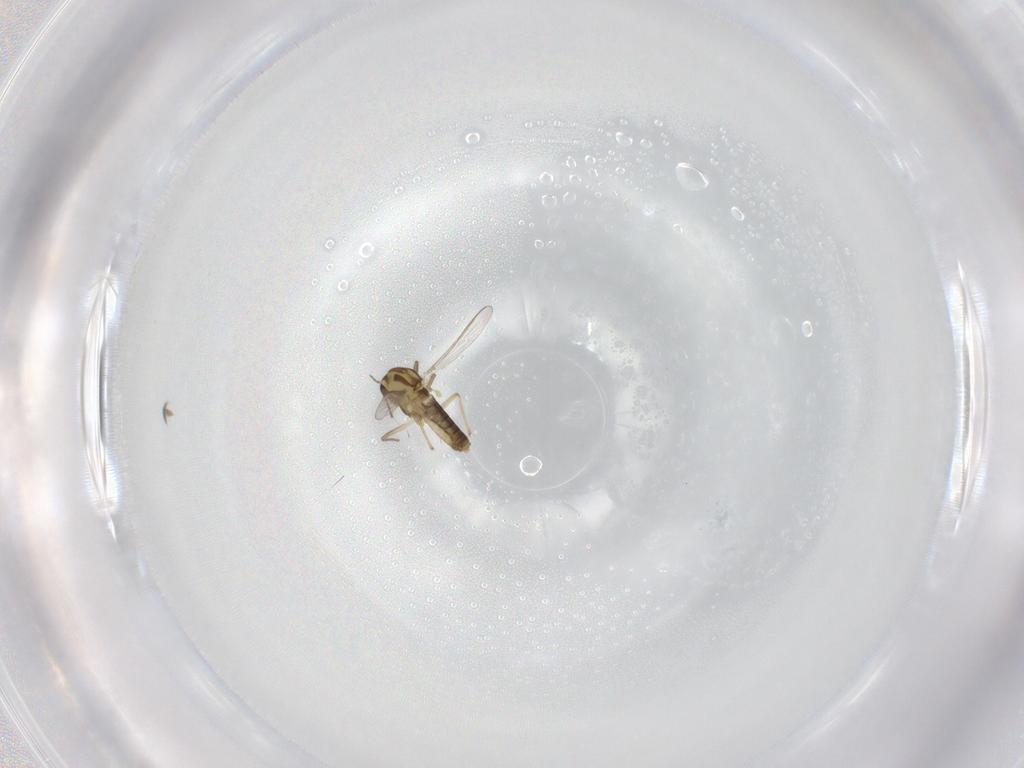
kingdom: Animalia
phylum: Arthropoda
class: Insecta
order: Diptera
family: Chironomidae
